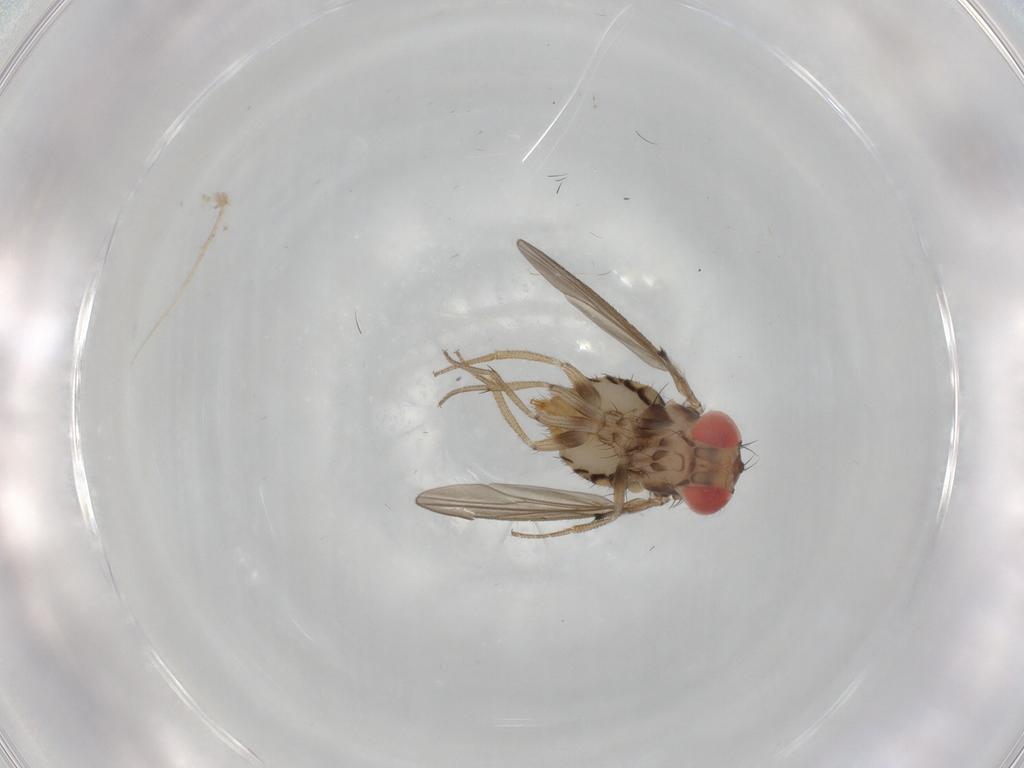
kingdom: Animalia
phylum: Arthropoda
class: Insecta
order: Diptera
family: Drosophilidae
